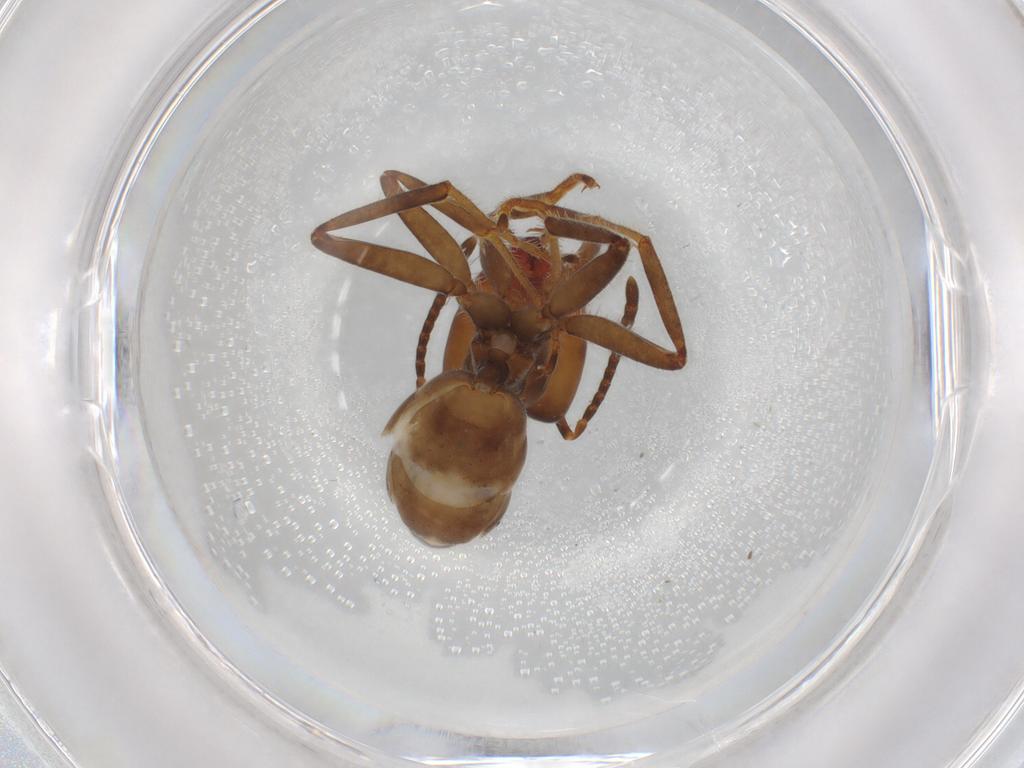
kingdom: Animalia
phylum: Arthropoda
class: Insecta
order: Hymenoptera
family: Formicidae
